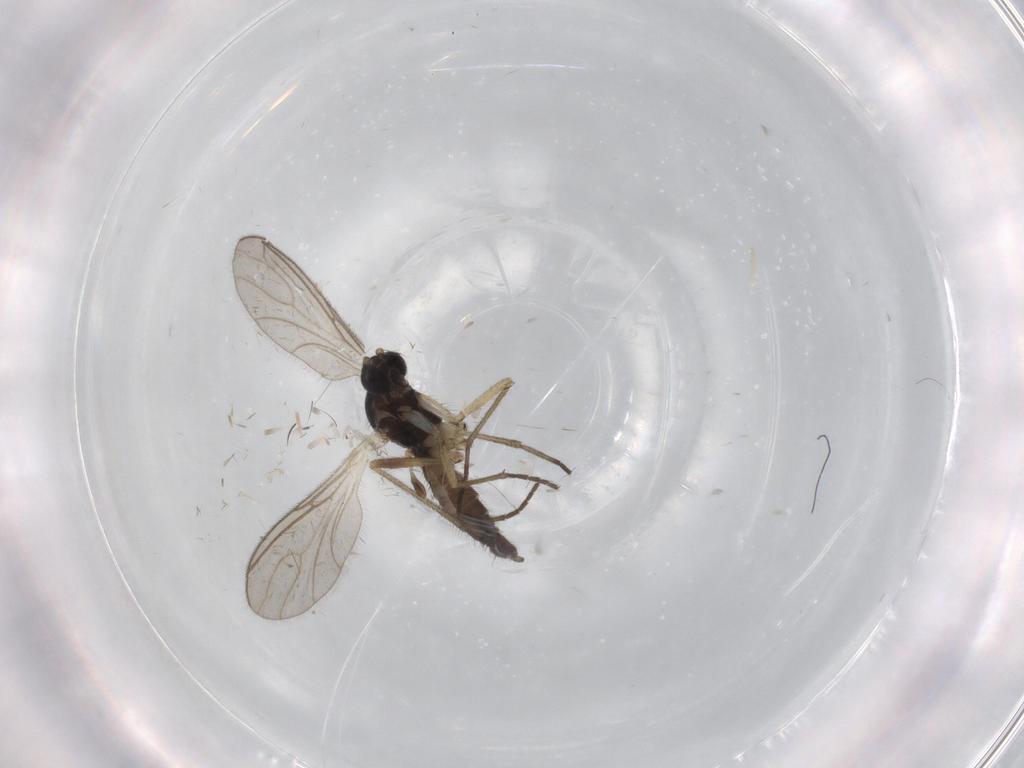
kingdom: Animalia
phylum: Arthropoda
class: Insecta
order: Diptera
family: Sciaridae
